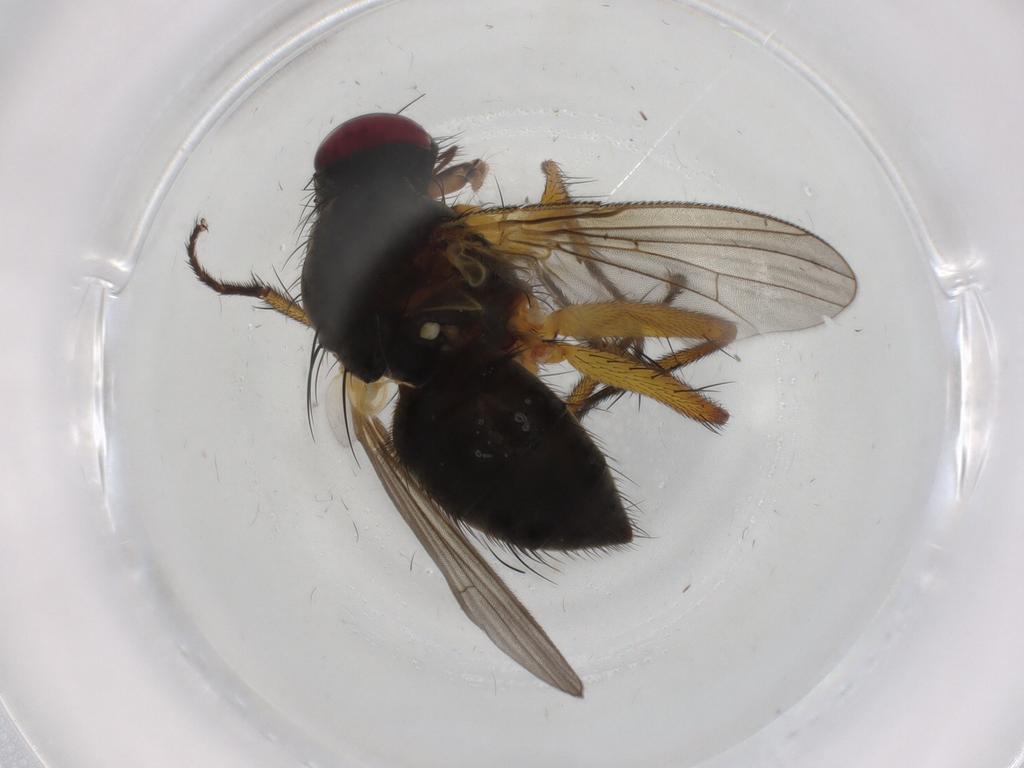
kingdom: Animalia
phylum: Arthropoda
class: Insecta
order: Diptera
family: Muscidae
